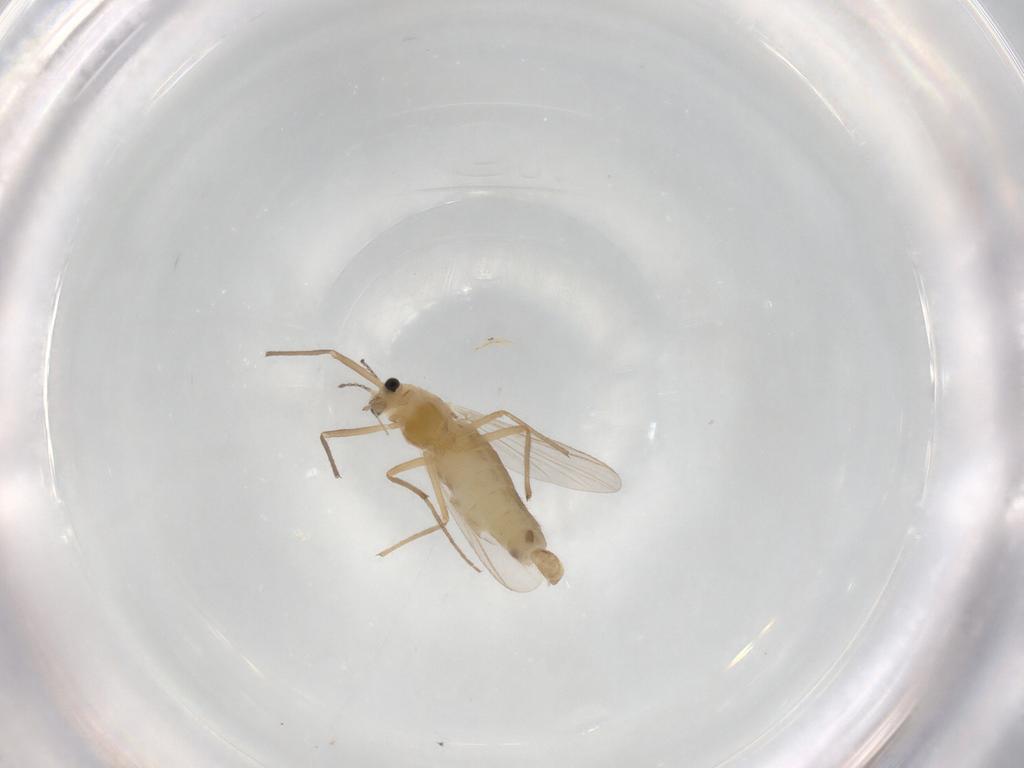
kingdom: Animalia
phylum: Arthropoda
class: Insecta
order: Diptera
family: Chironomidae
